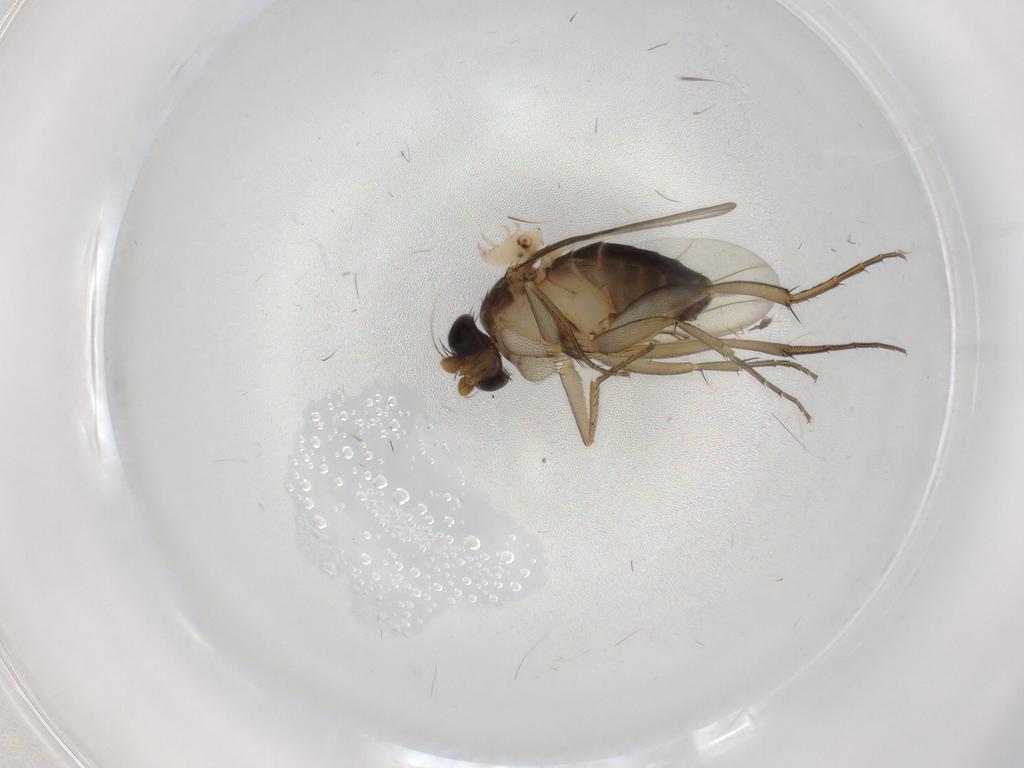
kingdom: Animalia
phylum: Arthropoda
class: Insecta
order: Diptera
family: Phoridae
